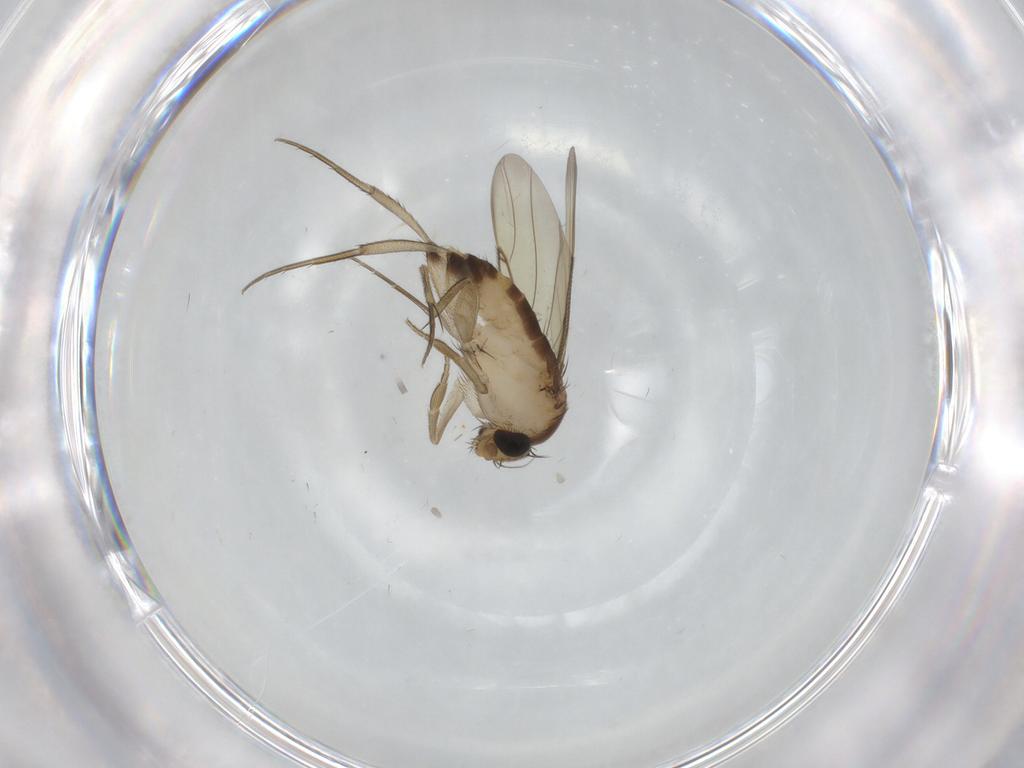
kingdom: Animalia
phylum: Arthropoda
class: Insecta
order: Diptera
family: Phoridae
